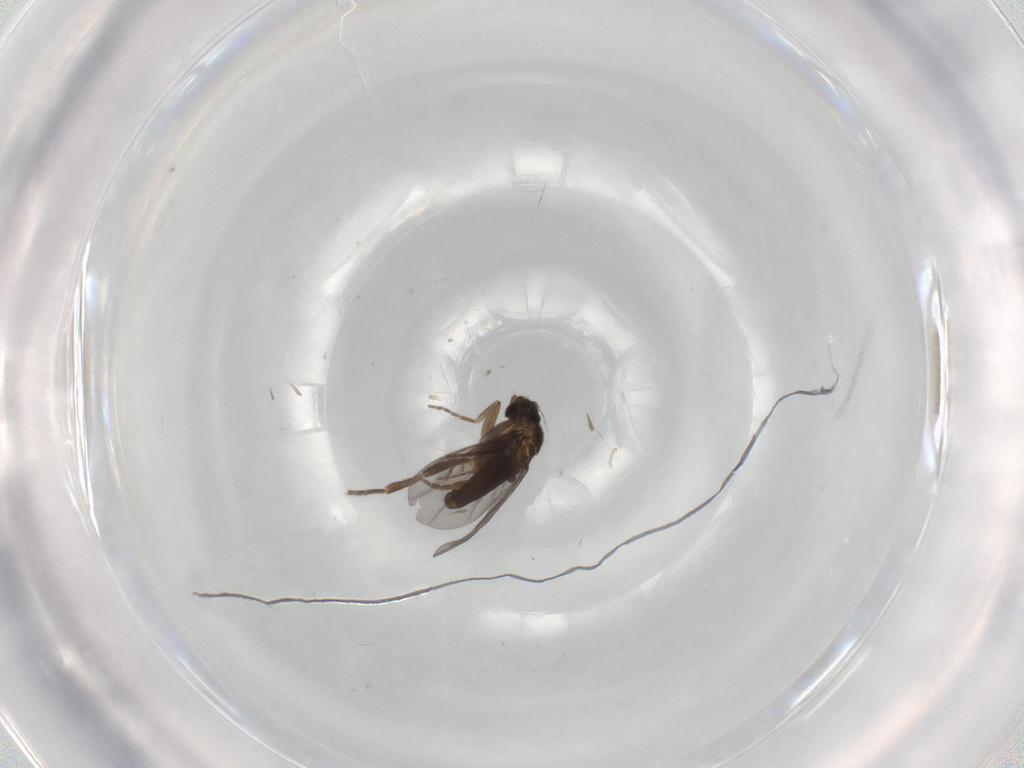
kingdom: Animalia
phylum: Arthropoda
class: Insecta
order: Diptera
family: Phoridae
